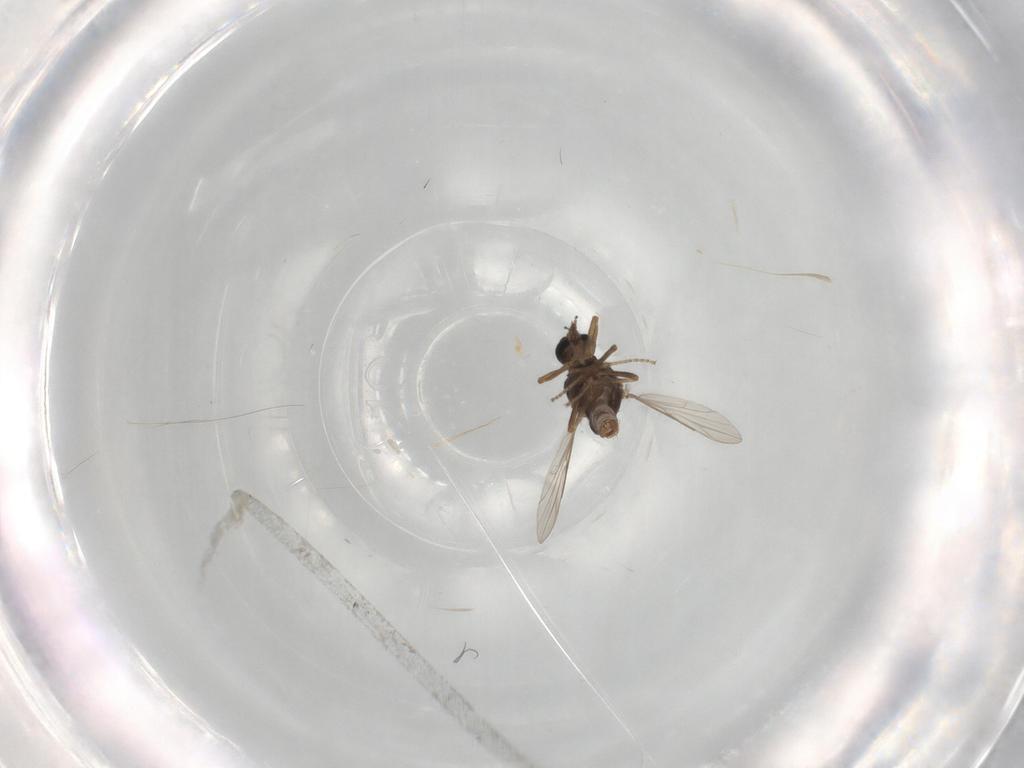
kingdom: Animalia
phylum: Arthropoda
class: Insecta
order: Diptera
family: Ceratopogonidae
